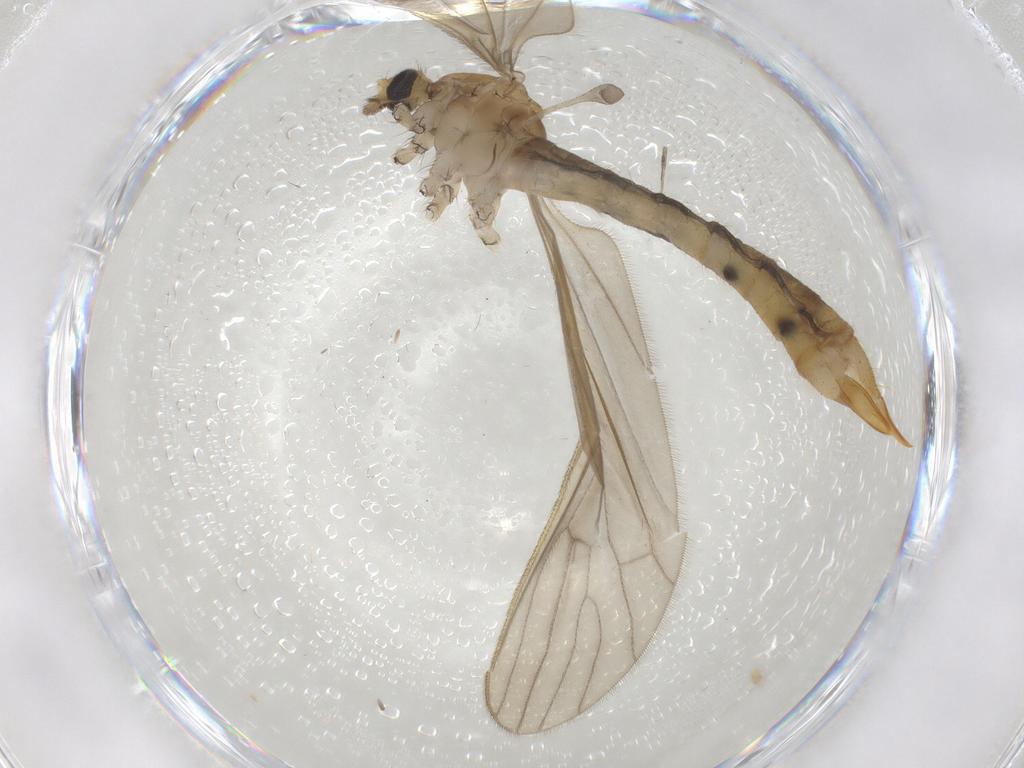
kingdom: Animalia
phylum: Arthropoda
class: Insecta
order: Diptera
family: Limoniidae
